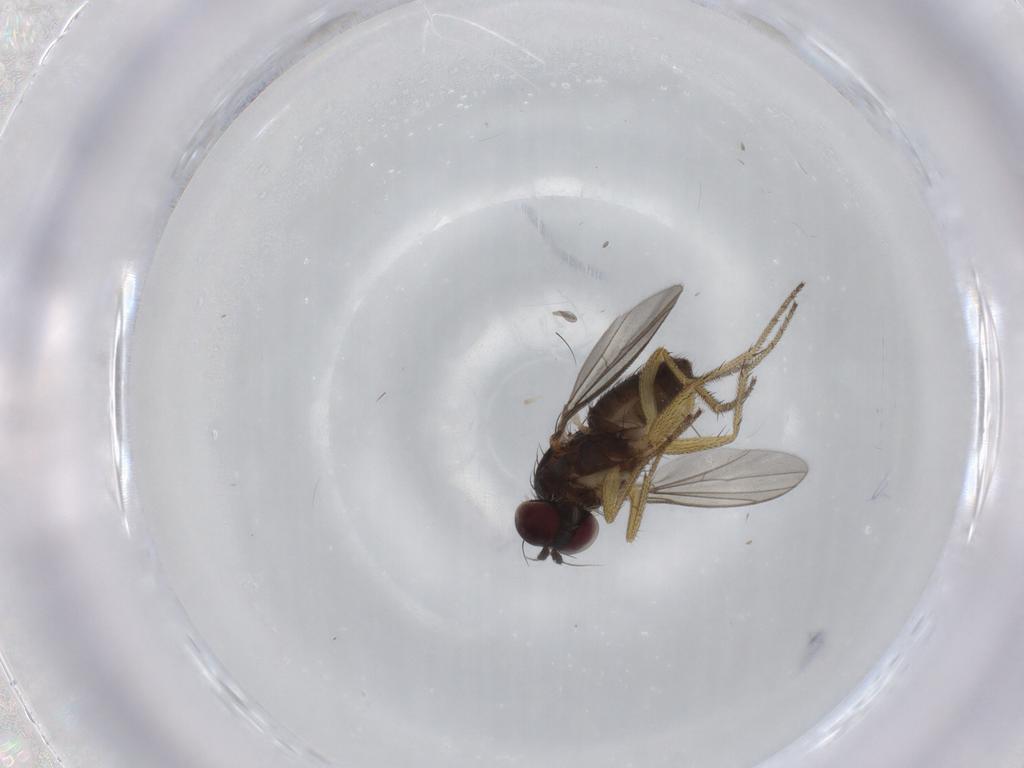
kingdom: Animalia
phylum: Arthropoda
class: Insecta
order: Diptera
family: Dolichopodidae
